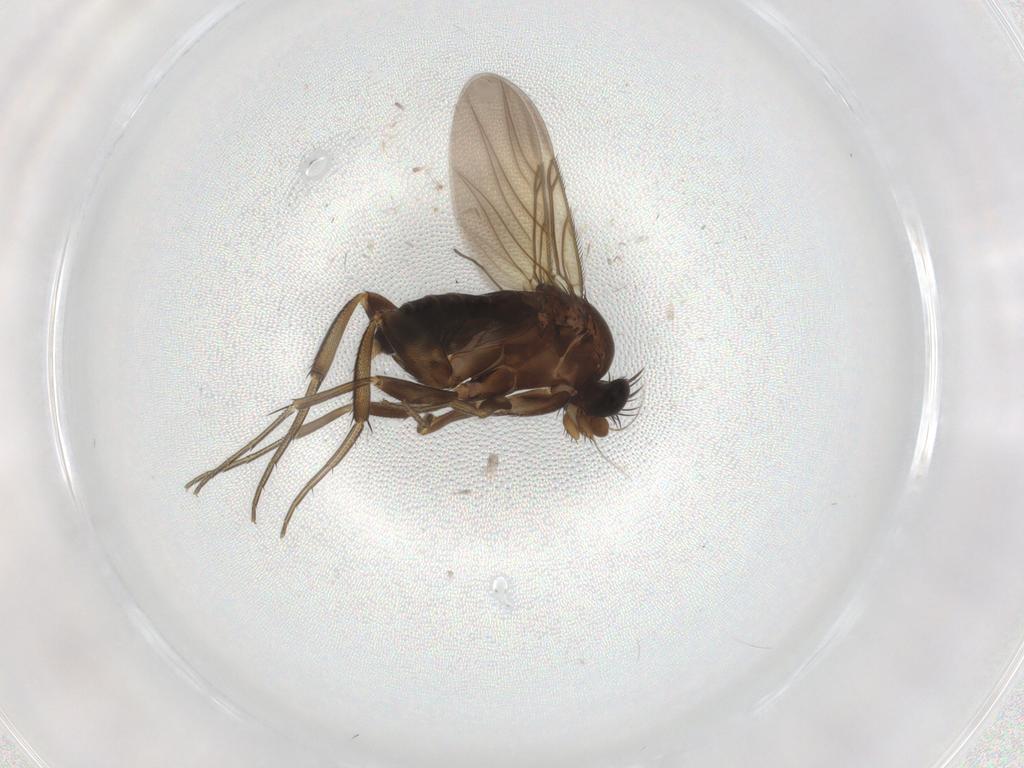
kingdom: Animalia
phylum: Arthropoda
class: Insecta
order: Diptera
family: Phoridae
